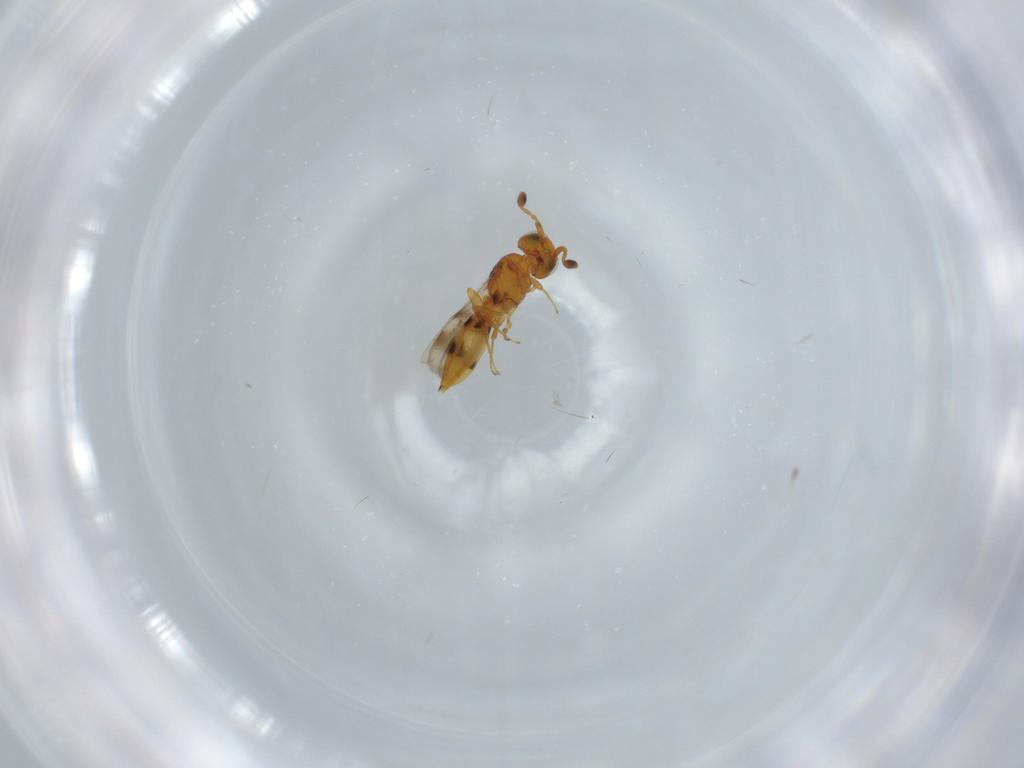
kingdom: Animalia
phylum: Arthropoda
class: Insecta
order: Hymenoptera
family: Scelionidae
